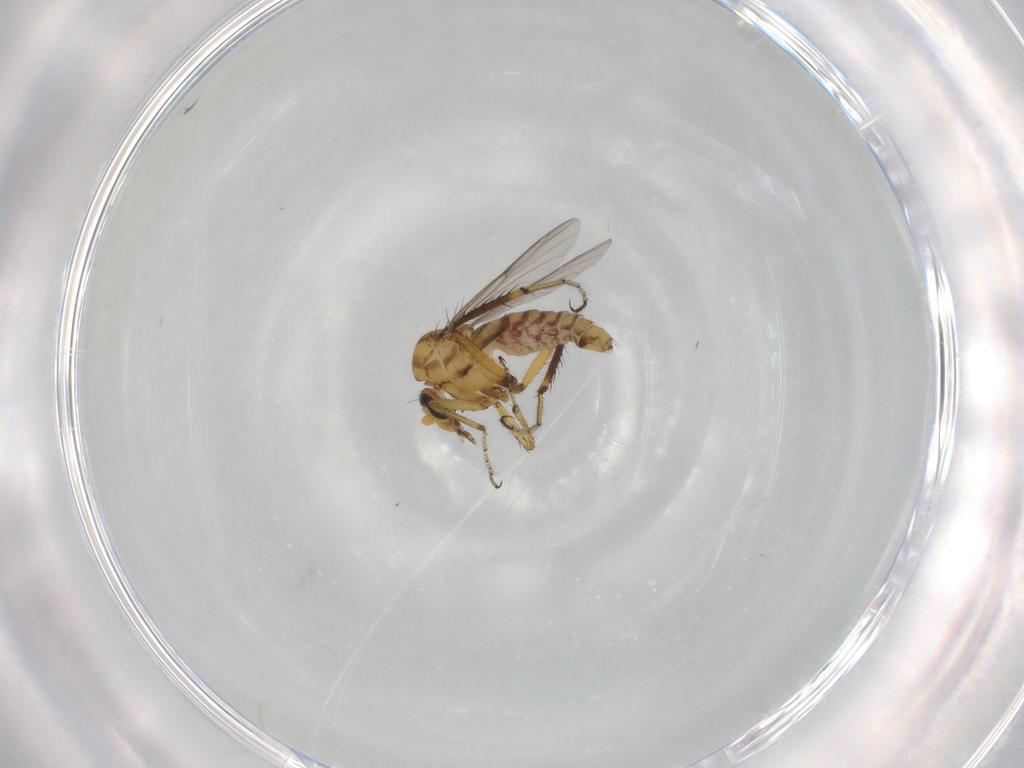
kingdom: Animalia
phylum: Arthropoda
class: Insecta
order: Diptera
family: Ceratopogonidae
